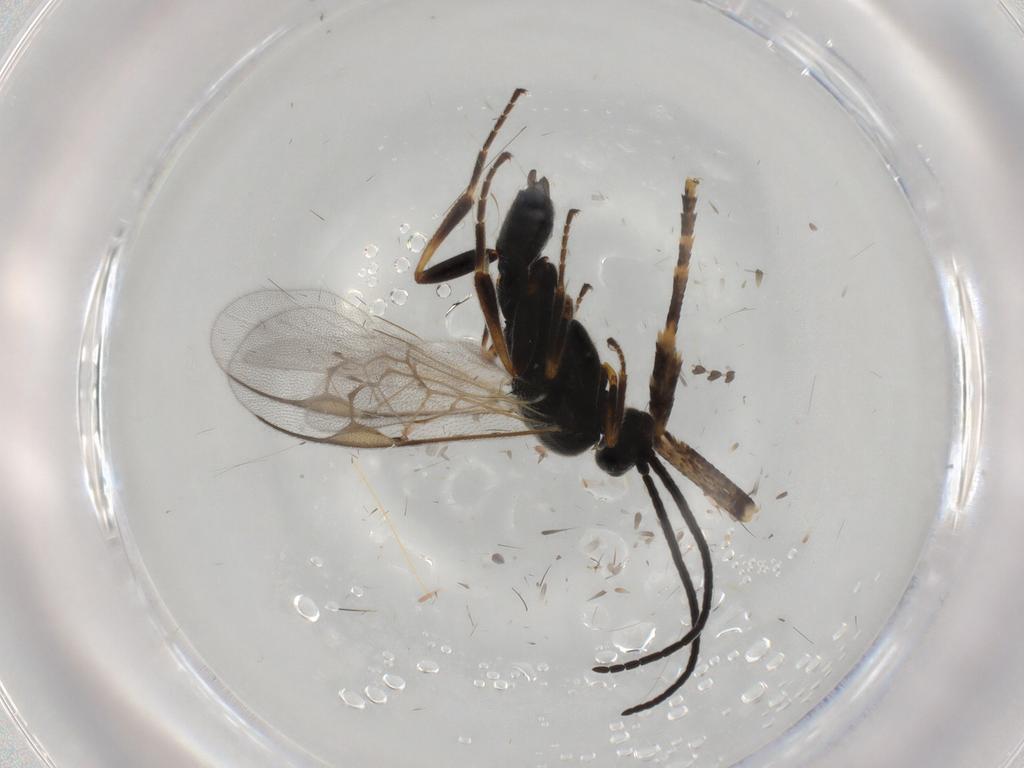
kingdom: Animalia
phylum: Arthropoda
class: Insecta
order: Hymenoptera
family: Braconidae
